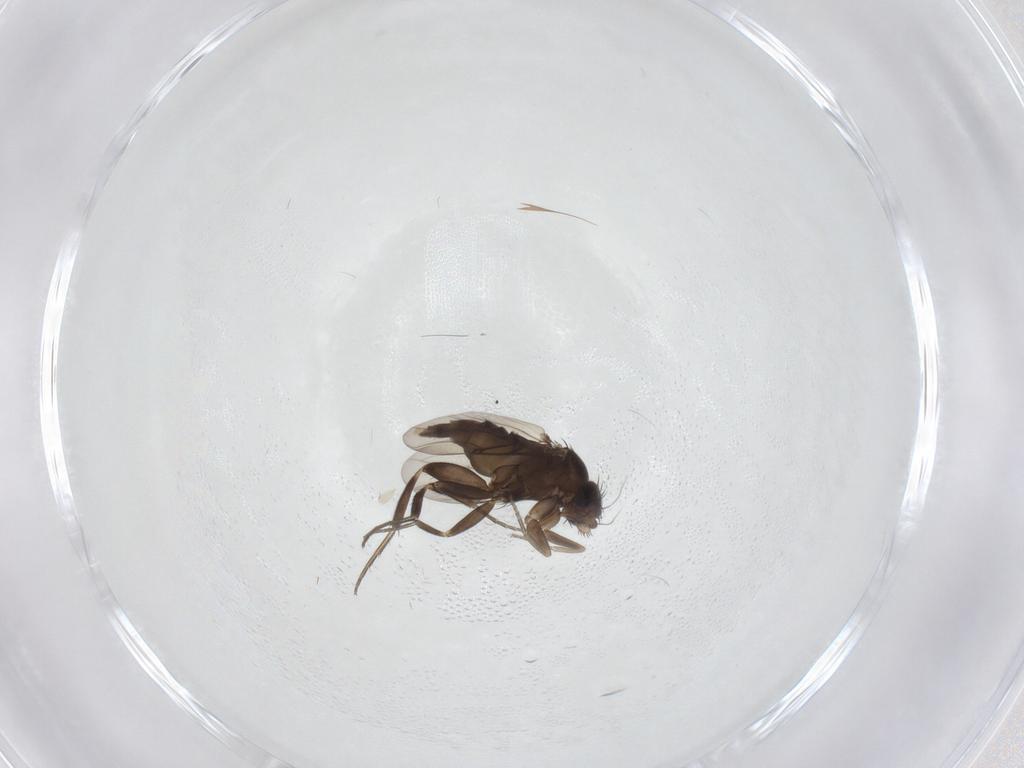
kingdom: Animalia
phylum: Arthropoda
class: Insecta
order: Diptera
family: Phoridae
